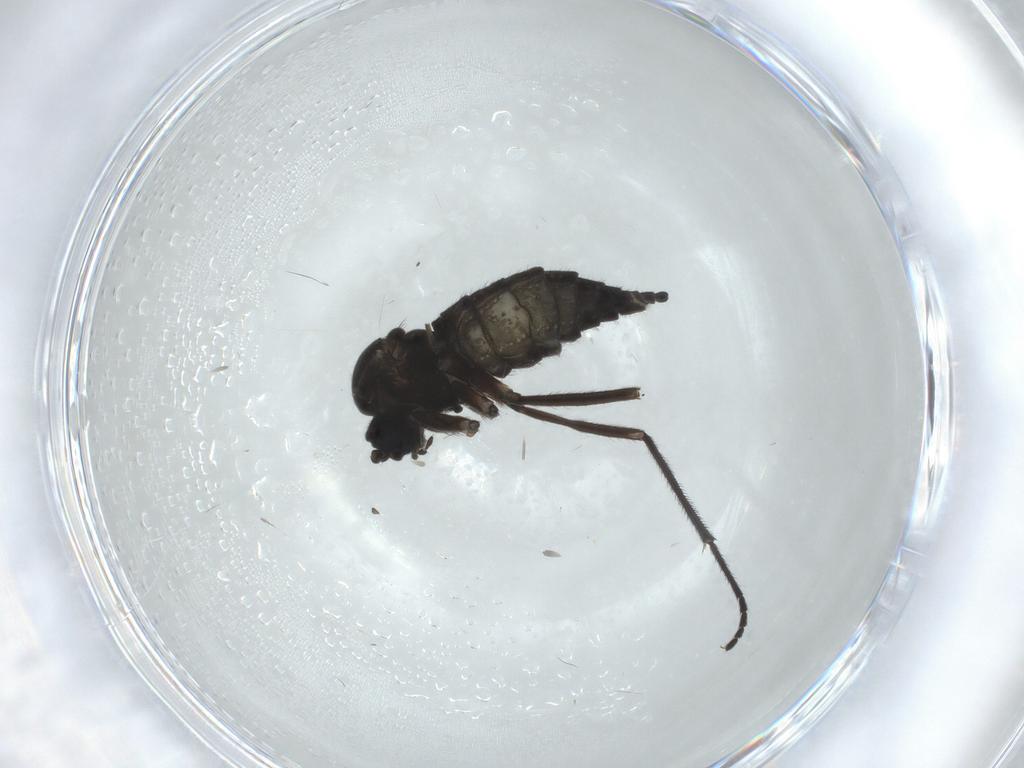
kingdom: Animalia
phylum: Arthropoda
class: Insecta
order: Diptera
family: Sciaridae
